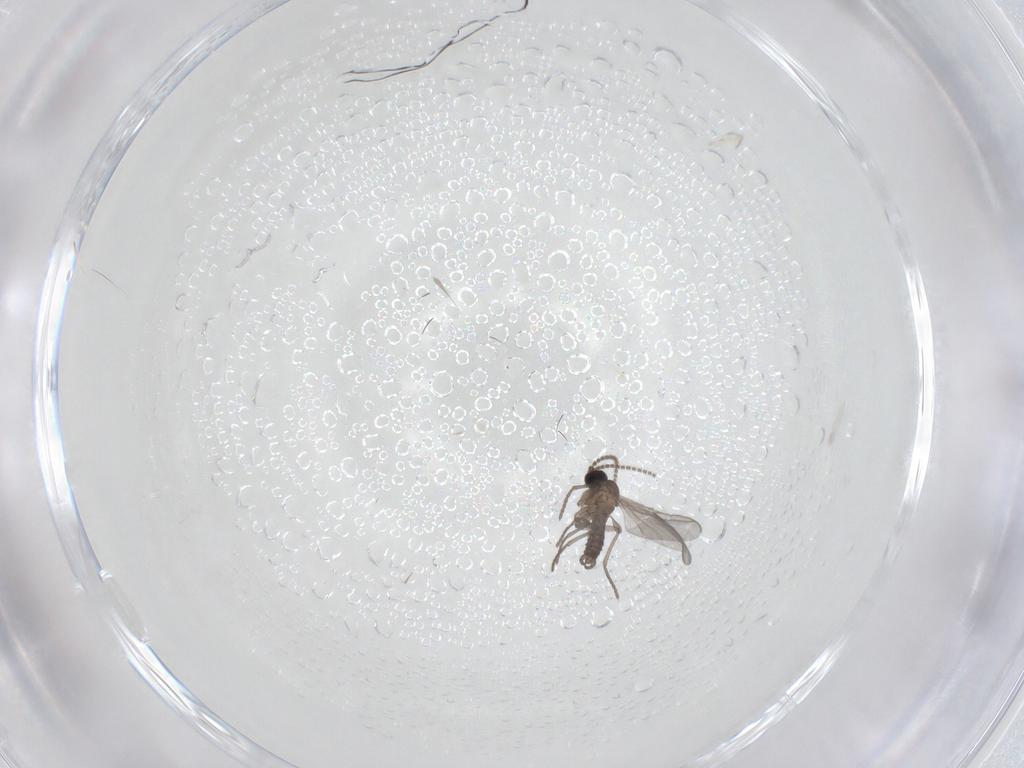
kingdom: Animalia
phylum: Arthropoda
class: Insecta
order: Diptera
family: Sciaridae
